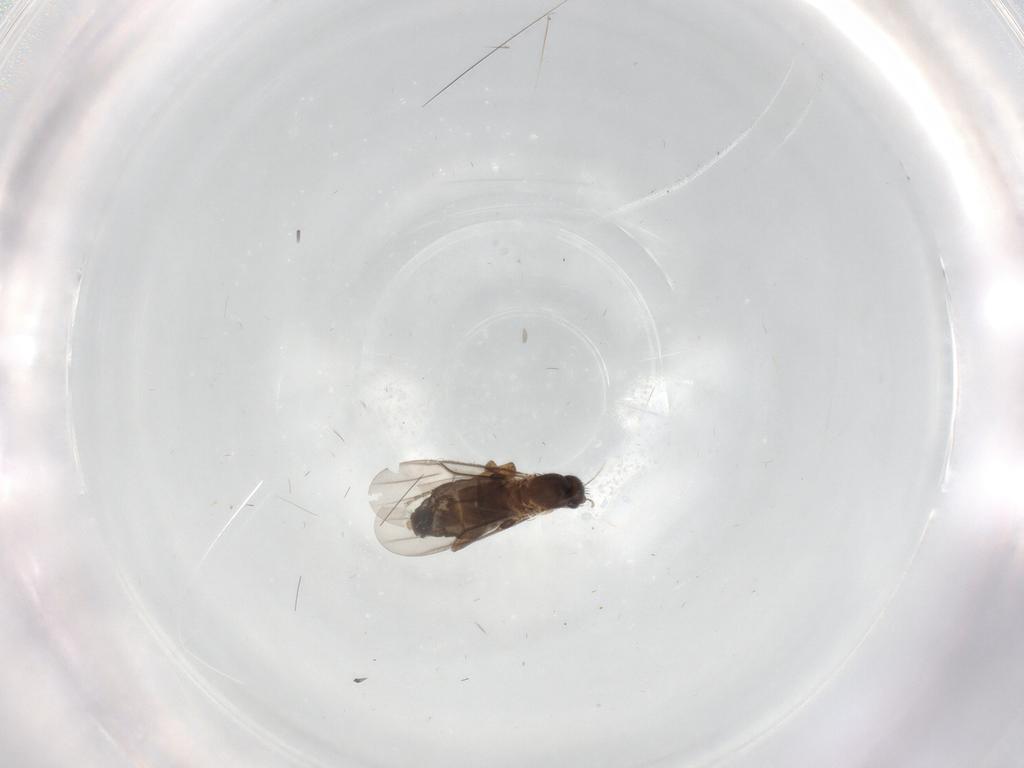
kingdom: Animalia
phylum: Arthropoda
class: Insecta
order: Diptera
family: Phoridae
